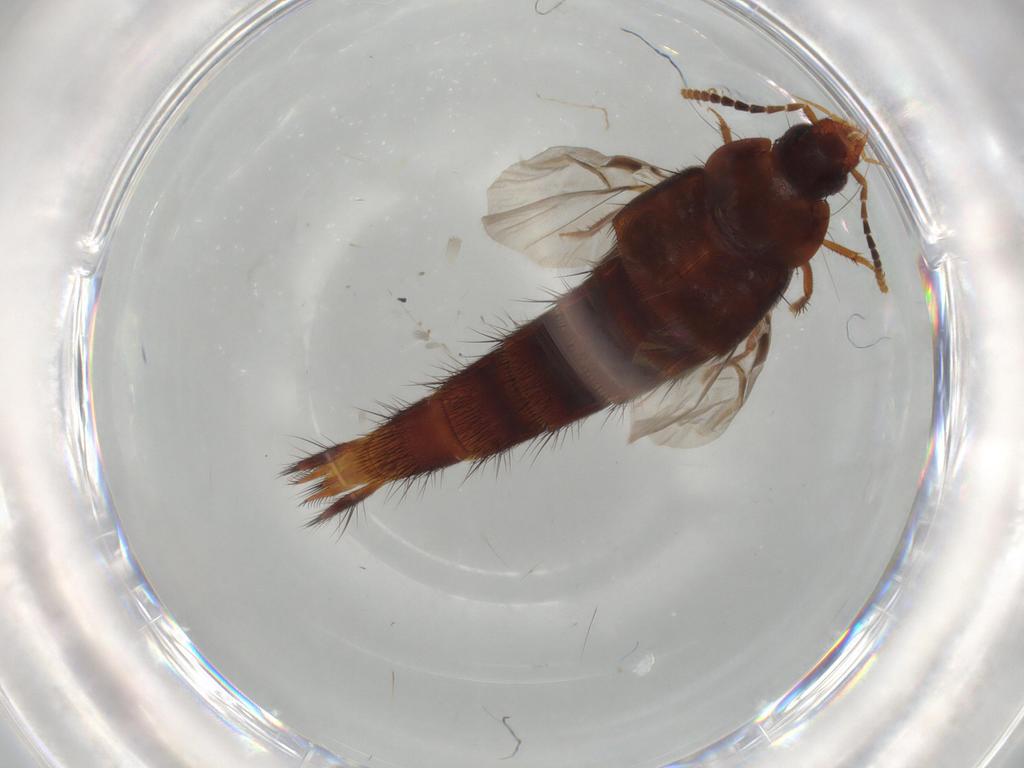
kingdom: Animalia
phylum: Arthropoda
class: Insecta
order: Coleoptera
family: Staphylinidae
